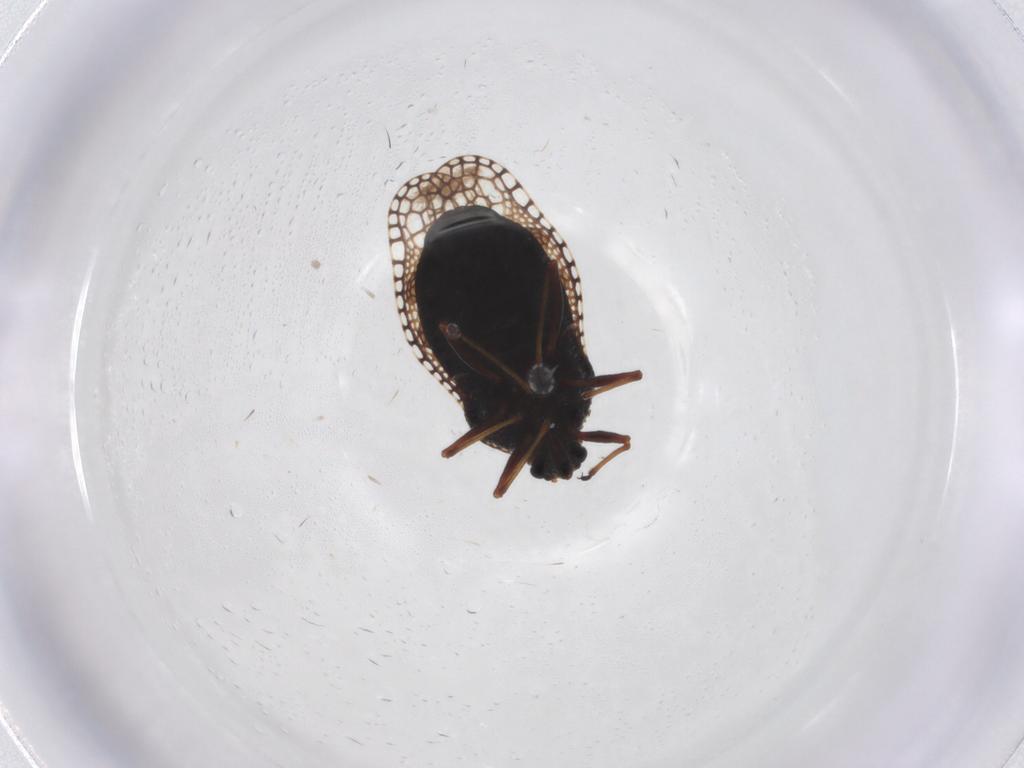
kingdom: Animalia
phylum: Arthropoda
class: Insecta
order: Hemiptera
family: Tingidae
